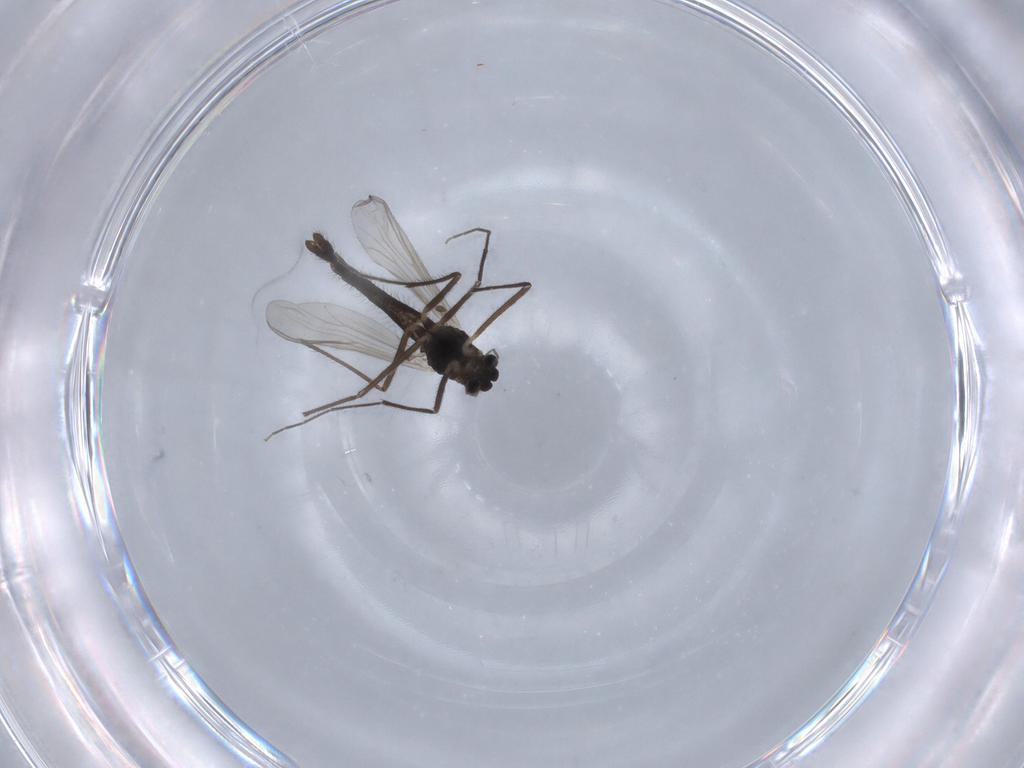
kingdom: Animalia
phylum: Arthropoda
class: Insecta
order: Diptera
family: Chironomidae
